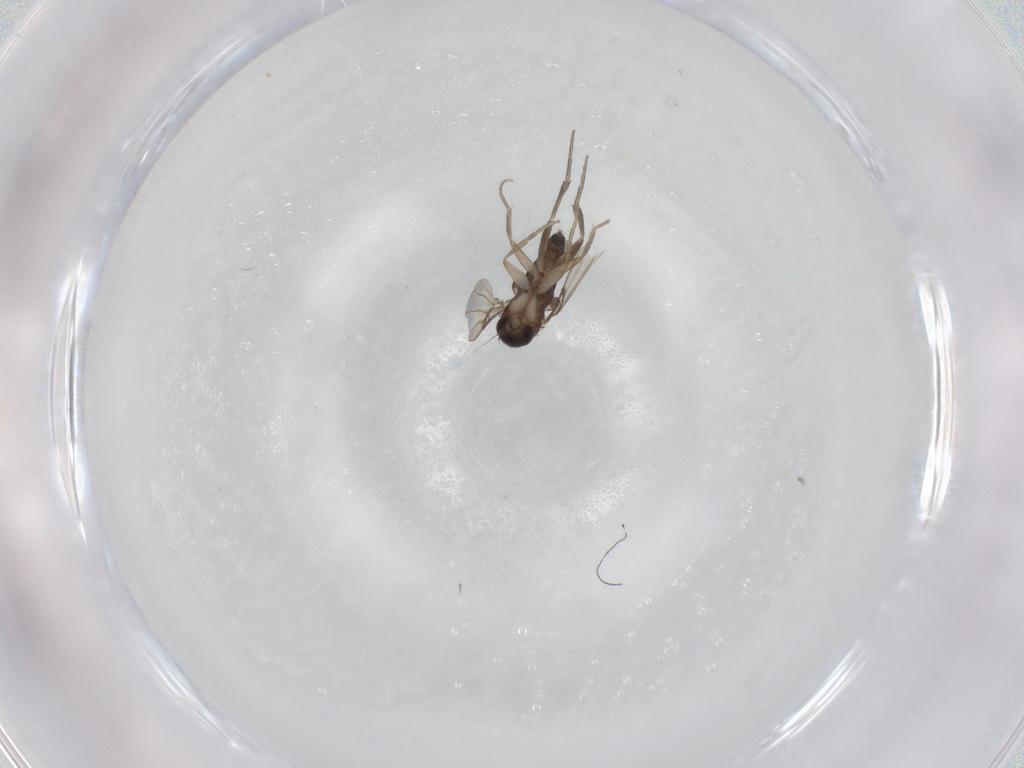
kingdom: Animalia
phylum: Arthropoda
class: Insecta
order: Diptera
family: Phoridae
